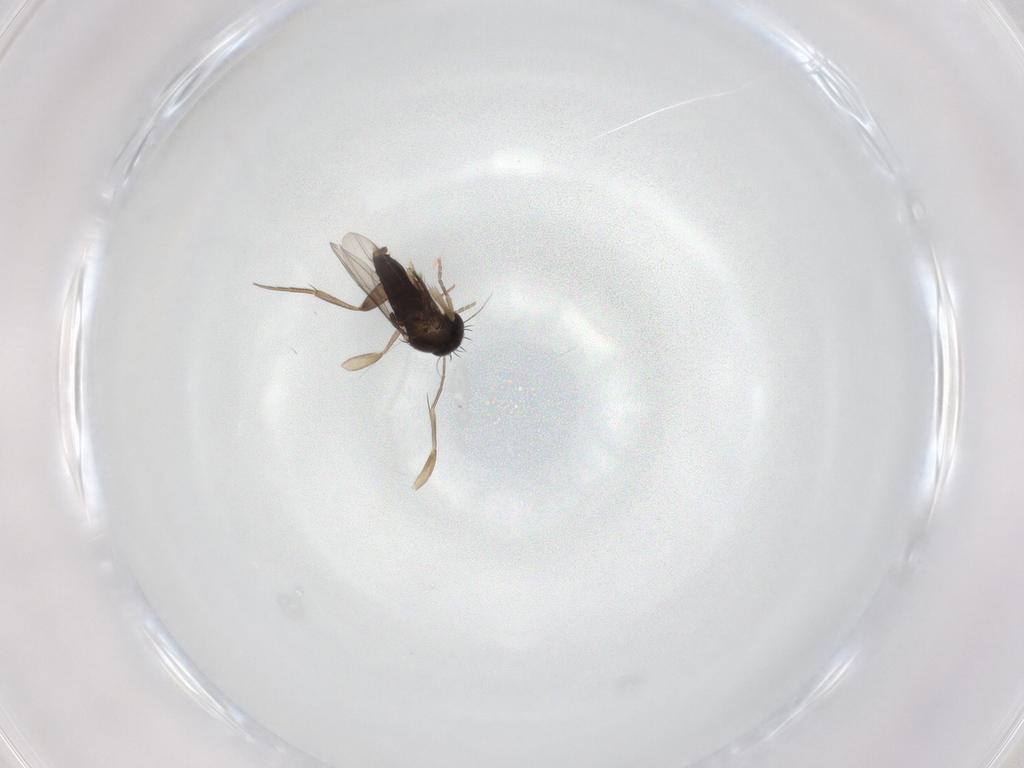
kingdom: Animalia
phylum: Arthropoda
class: Insecta
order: Diptera
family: Phoridae
